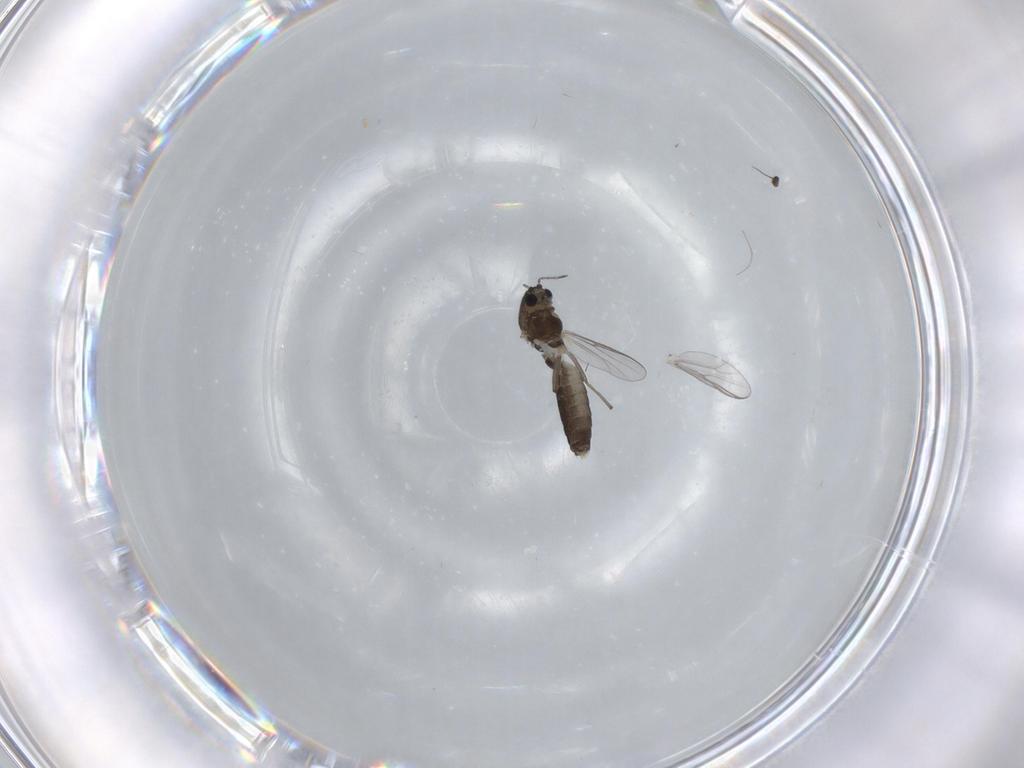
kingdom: Animalia
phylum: Arthropoda
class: Insecta
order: Diptera
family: Chironomidae
